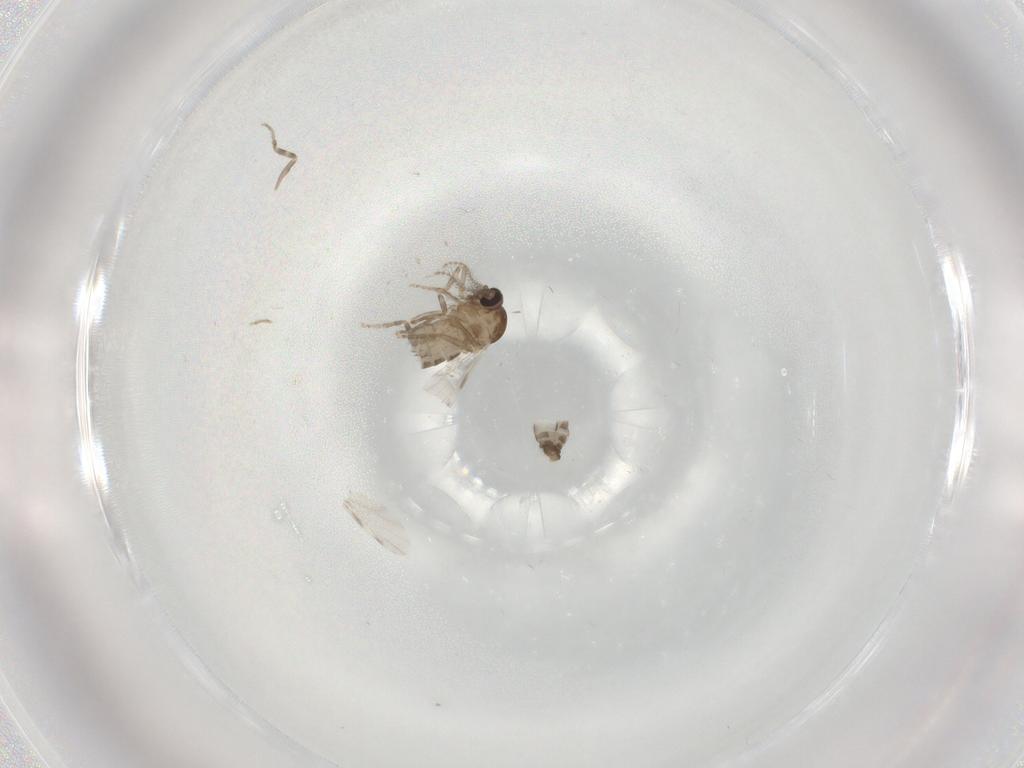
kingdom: Animalia
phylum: Arthropoda
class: Insecta
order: Diptera
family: Ceratopogonidae
